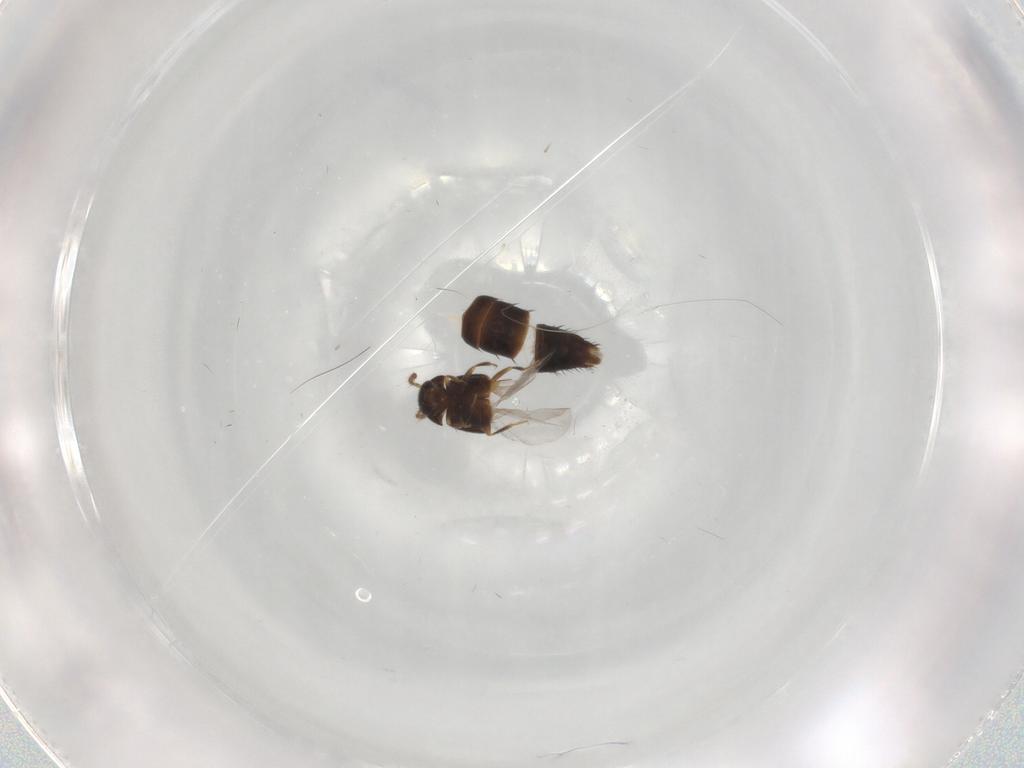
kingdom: Animalia
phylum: Arthropoda
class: Insecta
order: Coleoptera
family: Staphylinidae
